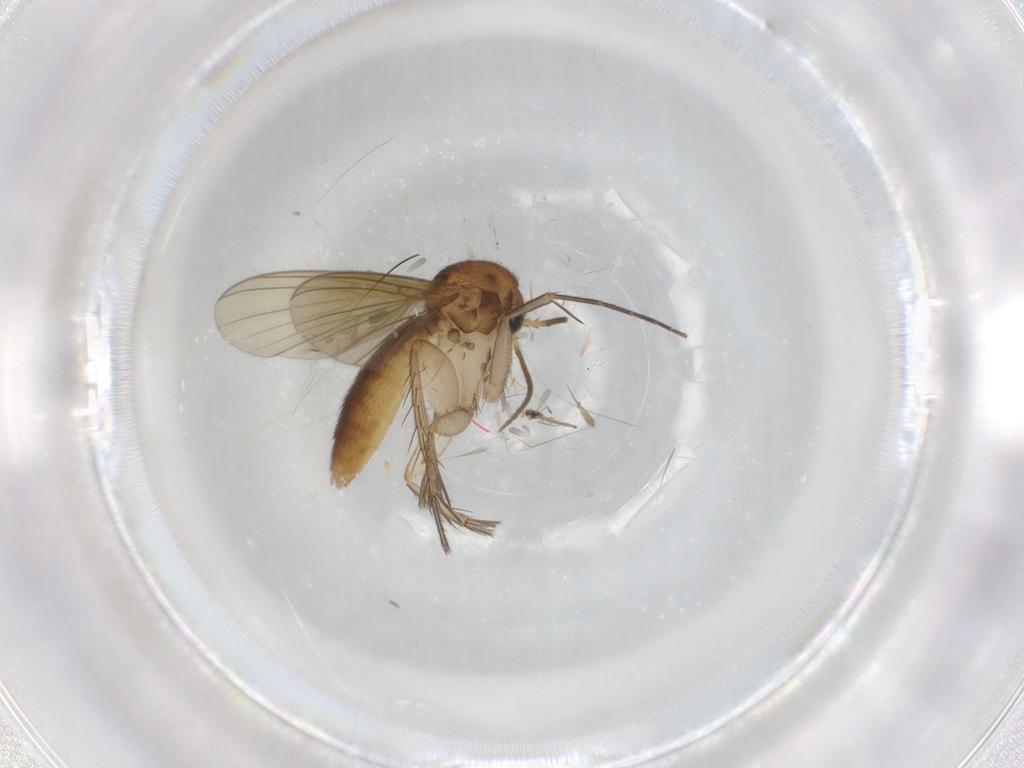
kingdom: Animalia
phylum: Arthropoda
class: Insecta
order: Diptera
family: Mycetophilidae
